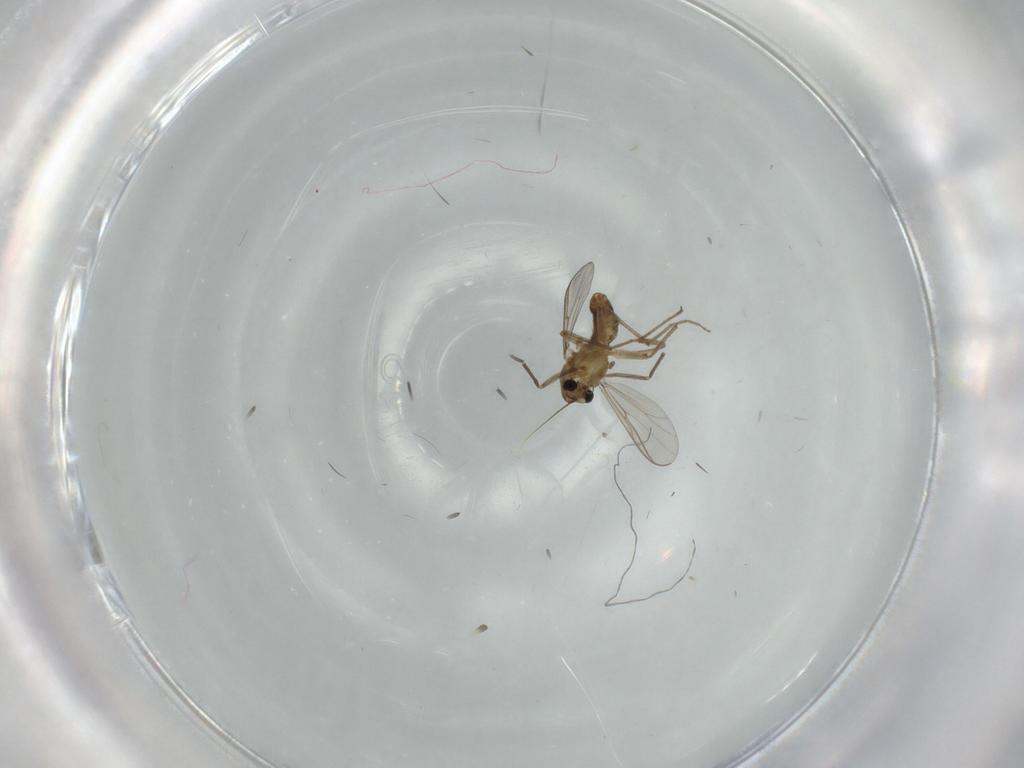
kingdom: Animalia
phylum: Arthropoda
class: Insecta
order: Diptera
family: Chironomidae
